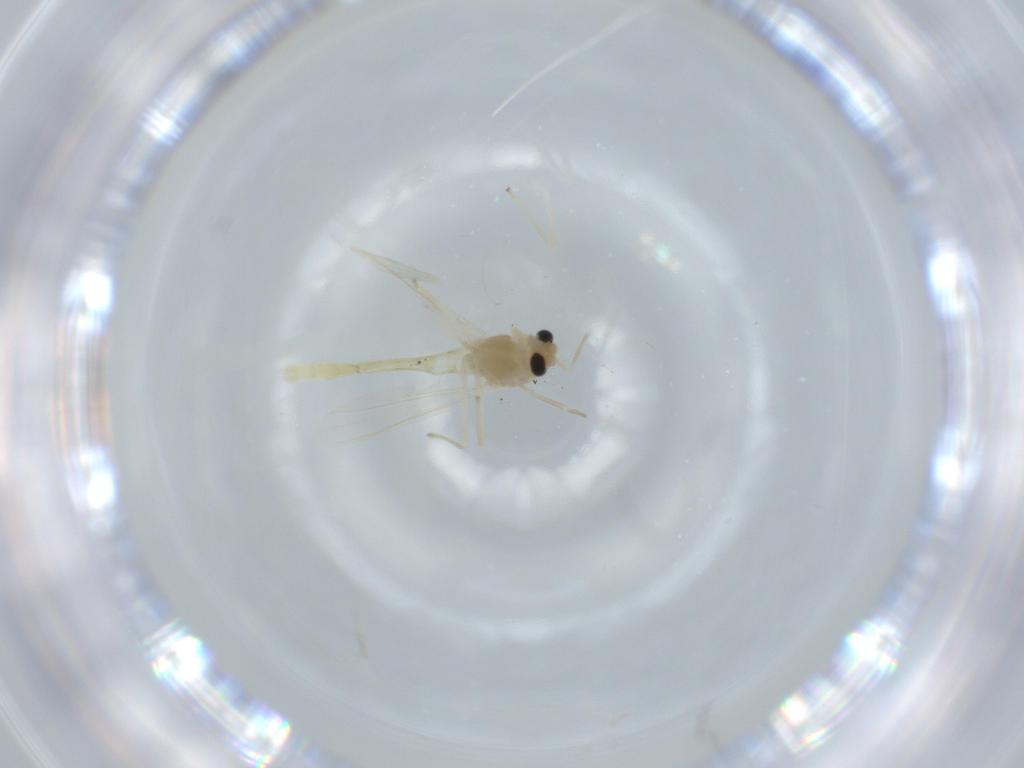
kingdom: Animalia
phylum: Arthropoda
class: Insecta
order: Diptera
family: Chironomidae
